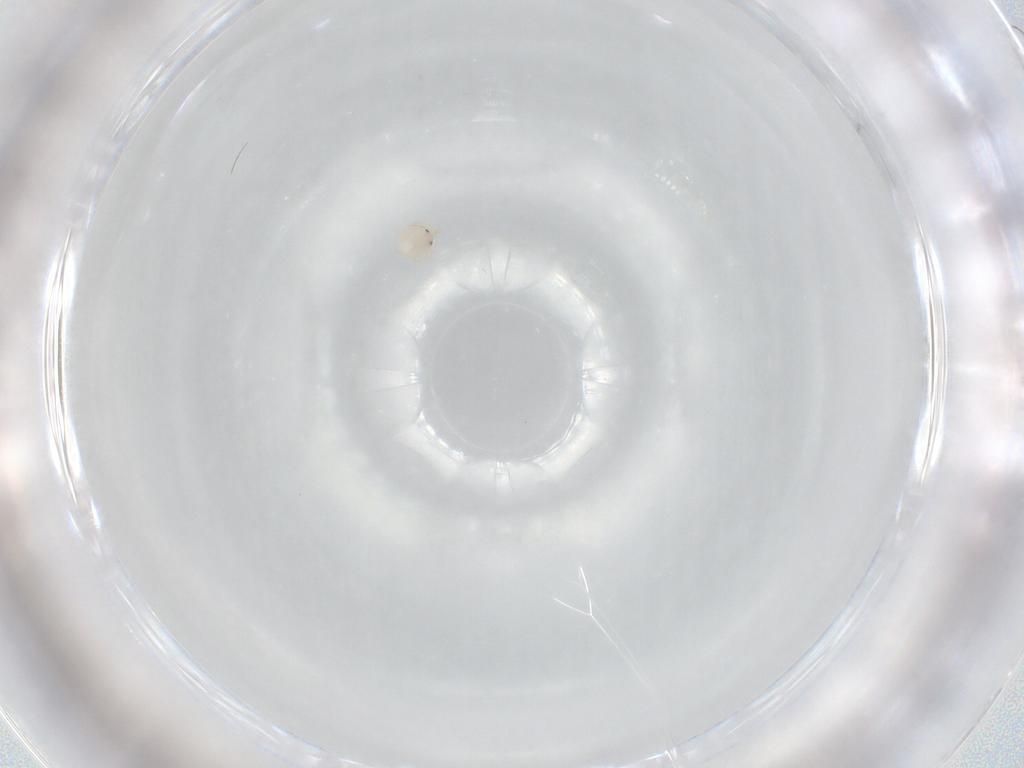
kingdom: Animalia
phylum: Arthropoda
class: Arachnida
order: Trombidiformes
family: Lebertiidae
